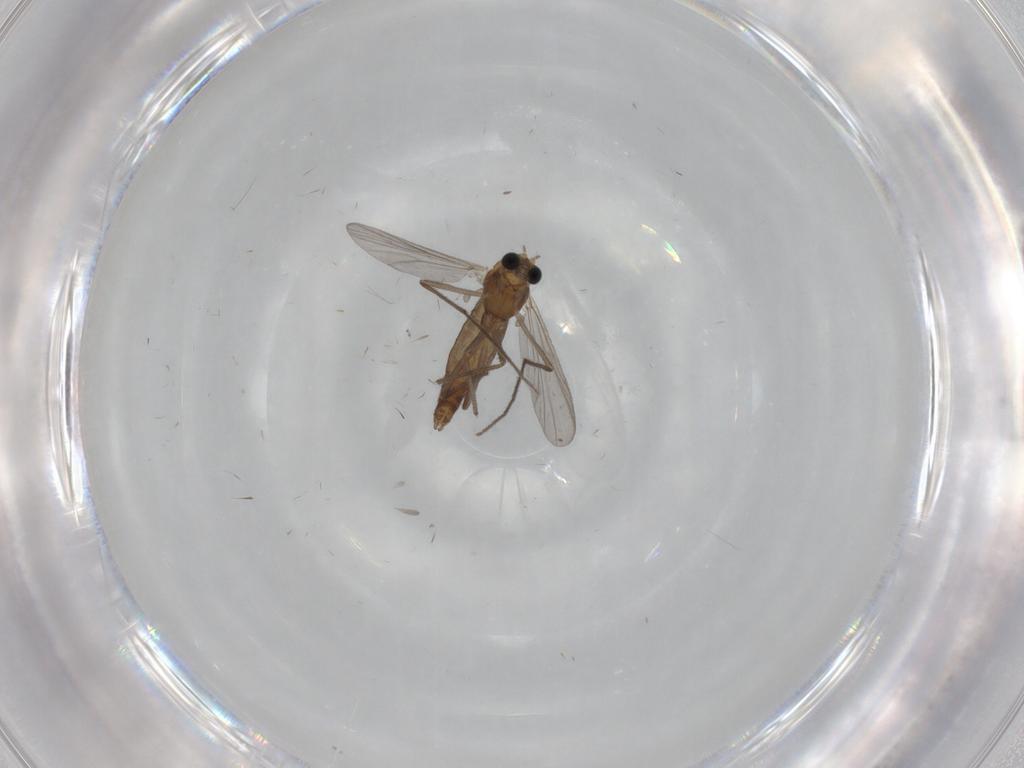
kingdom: Animalia
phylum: Arthropoda
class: Insecta
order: Diptera
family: Chironomidae
